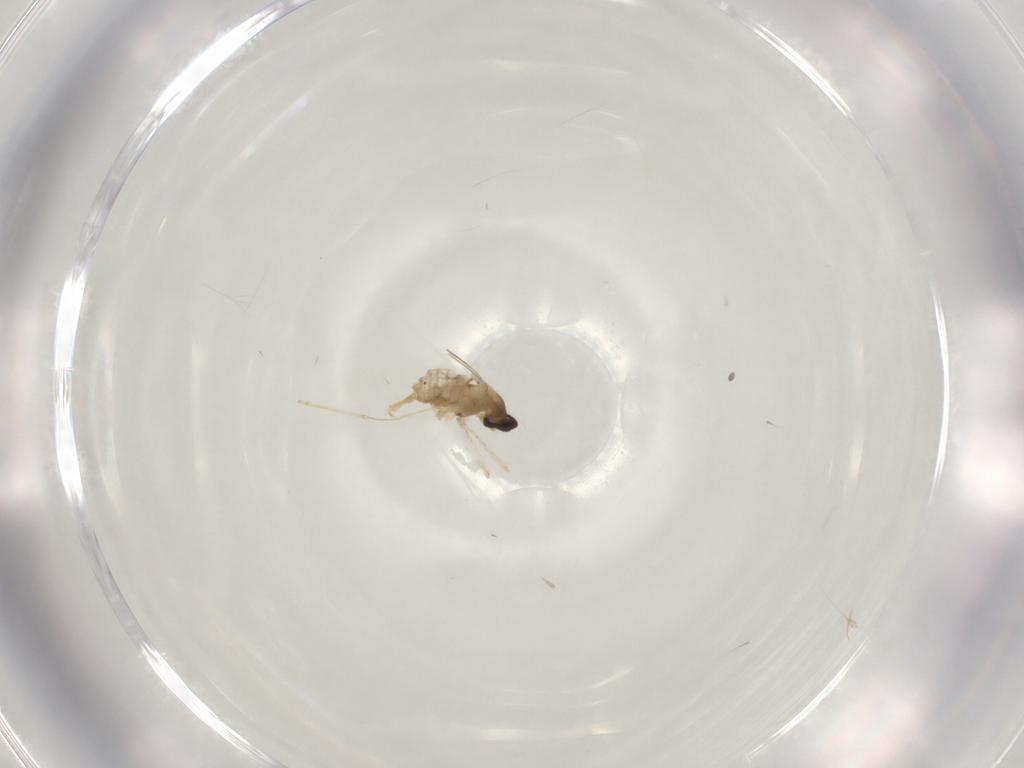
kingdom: Animalia
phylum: Arthropoda
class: Insecta
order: Diptera
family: Cecidomyiidae
